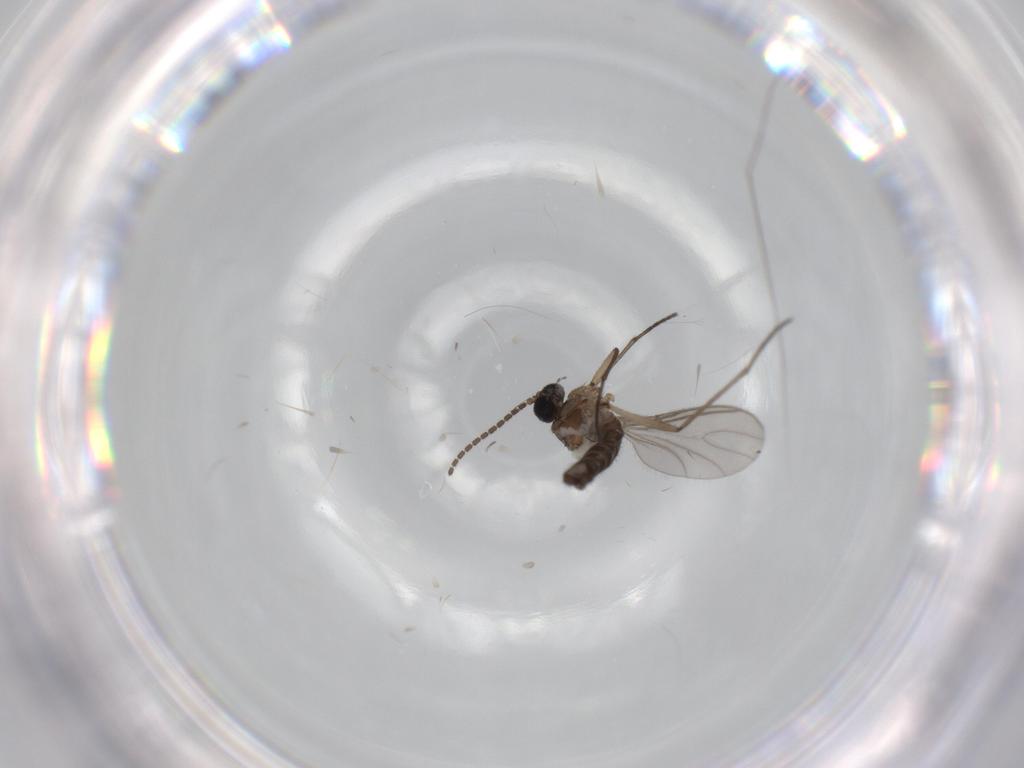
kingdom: Animalia
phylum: Arthropoda
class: Insecta
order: Diptera
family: Sciaridae
